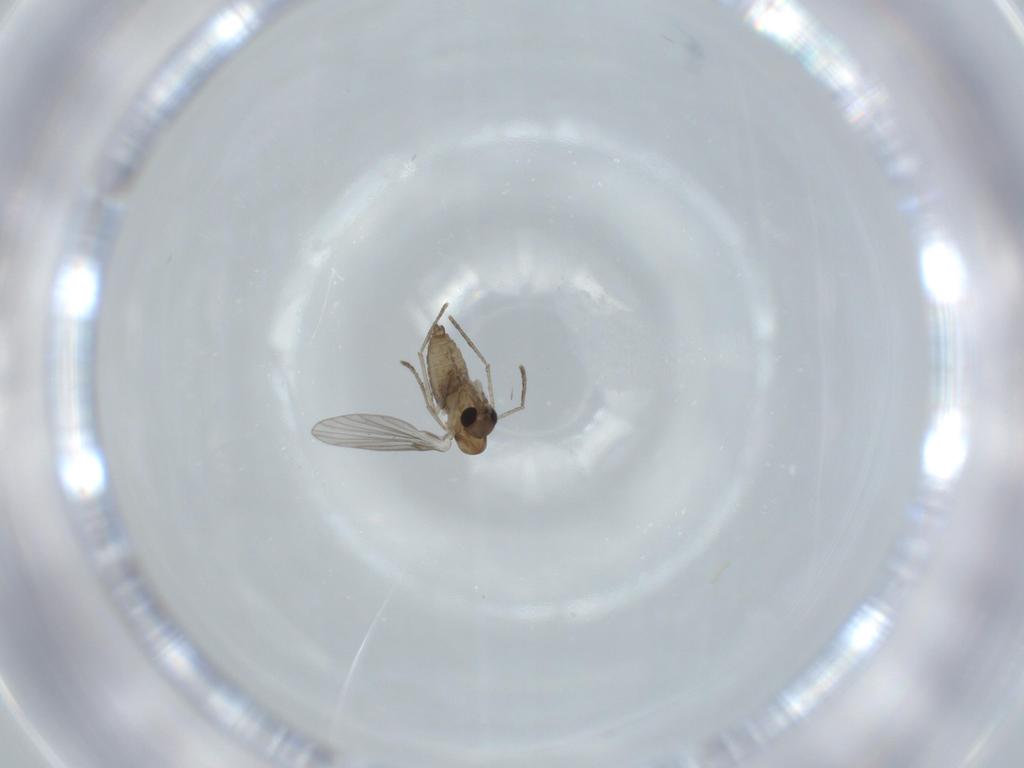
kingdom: Animalia
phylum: Arthropoda
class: Insecta
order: Diptera
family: Psychodidae
